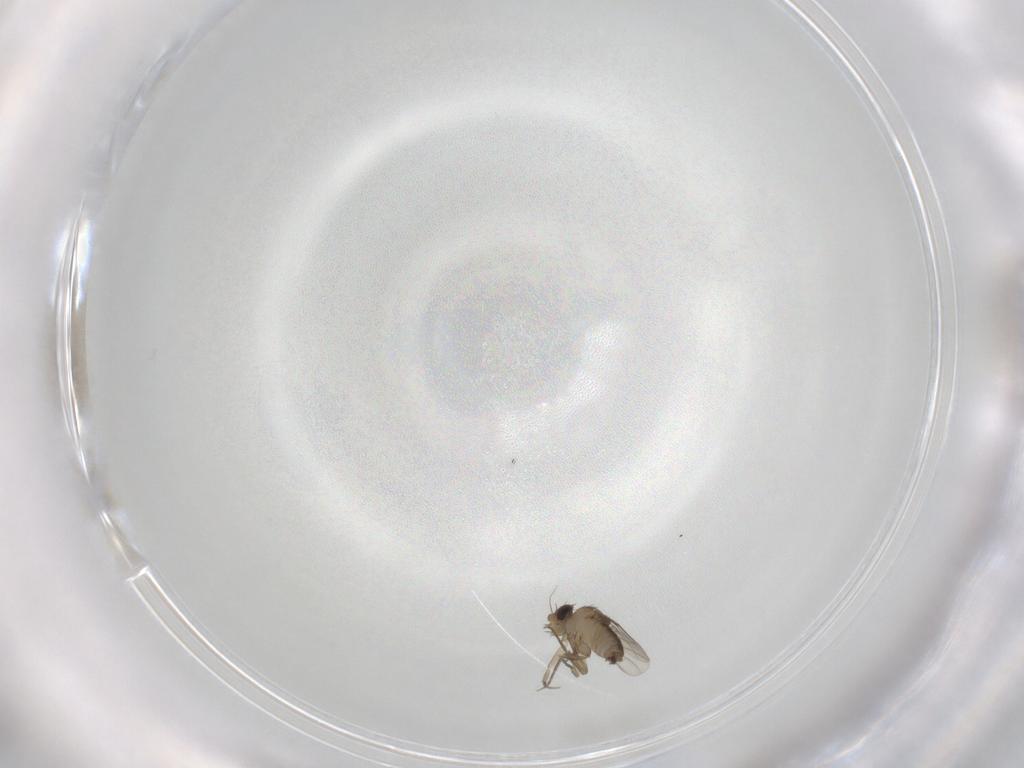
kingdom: Animalia
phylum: Arthropoda
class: Insecta
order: Diptera
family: Phoridae
